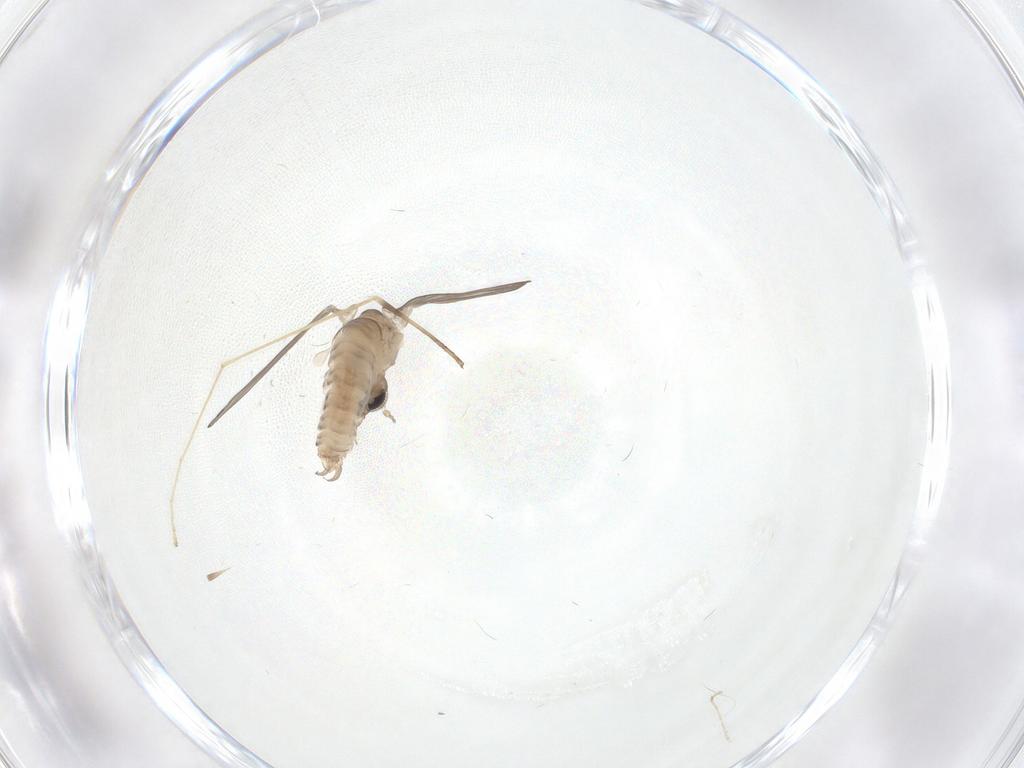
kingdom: Animalia
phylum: Arthropoda
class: Insecta
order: Diptera
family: Limoniidae
